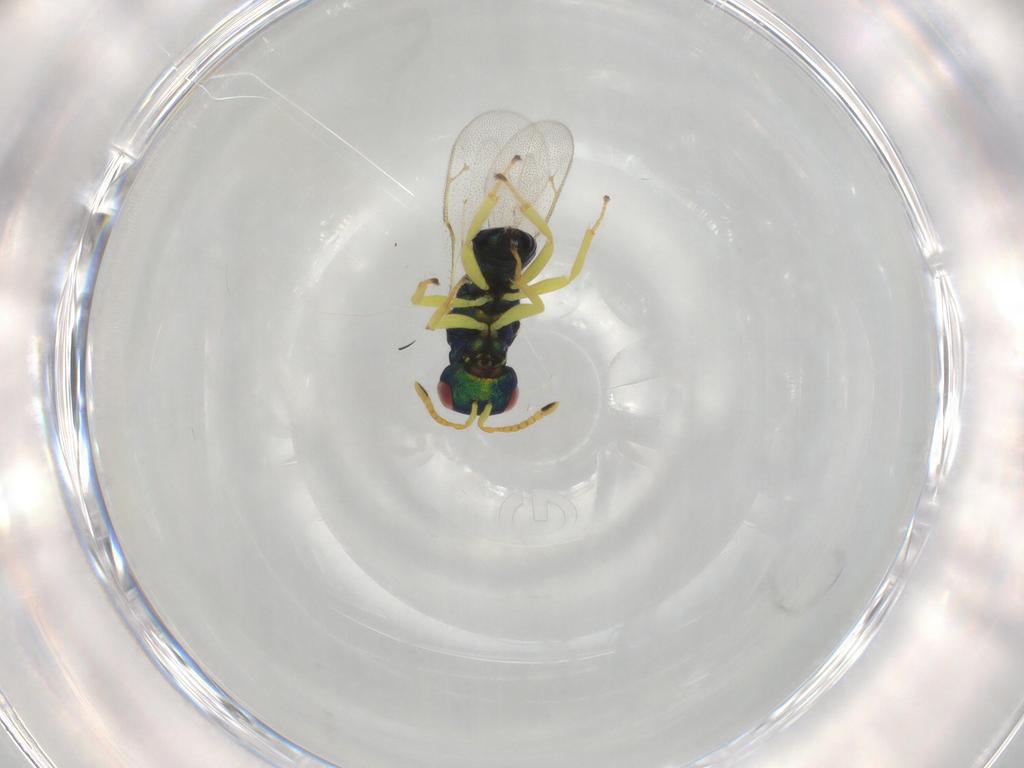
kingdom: Animalia
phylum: Arthropoda
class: Insecta
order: Hymenoptera
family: Pteromalidae
